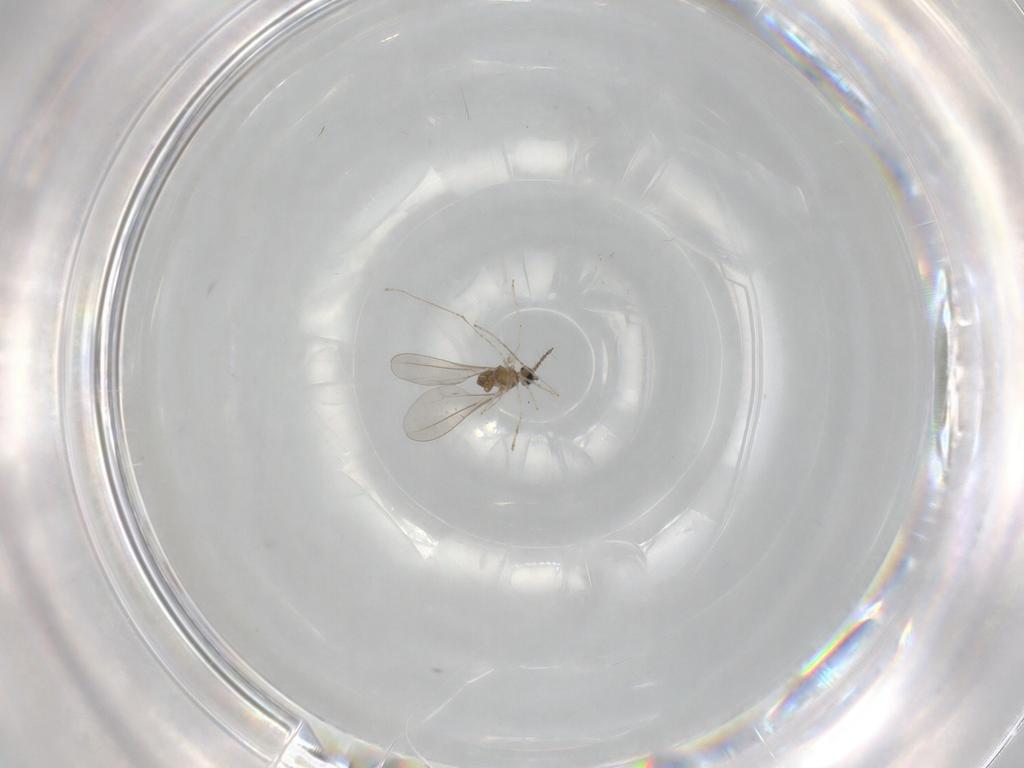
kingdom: Animalia
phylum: Arthropoda
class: Insecta
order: Diptera
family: Cecidomyiidae
